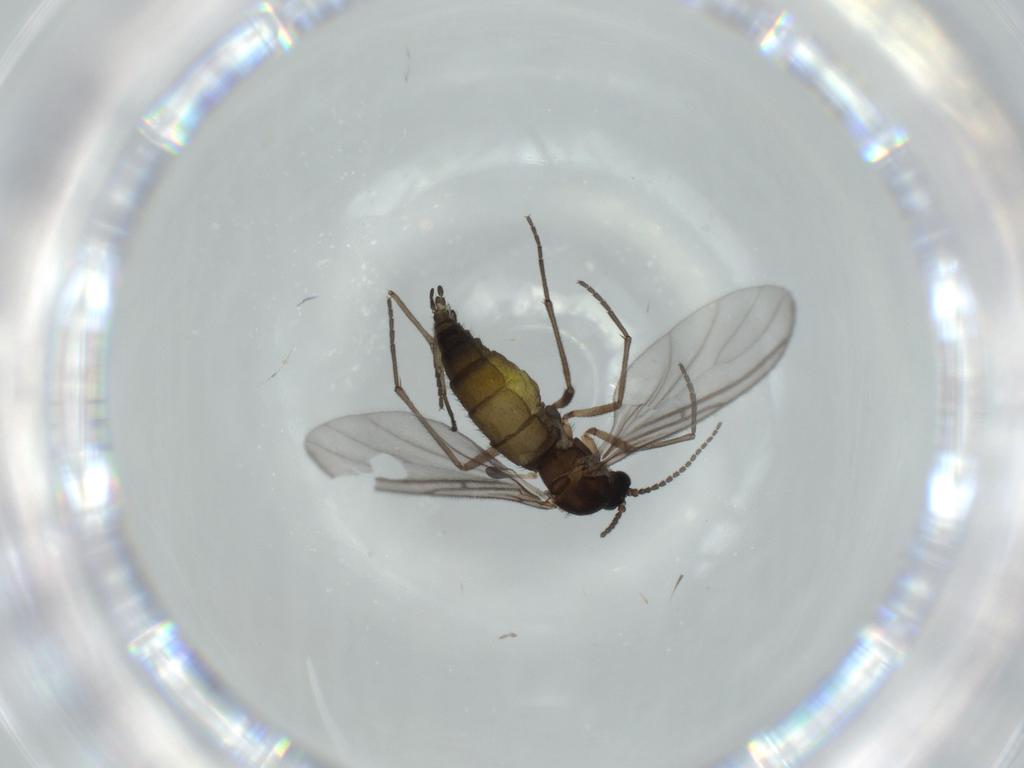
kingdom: Animalia
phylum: Arthropoda
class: Insecta
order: Diptera
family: Sciaridae
